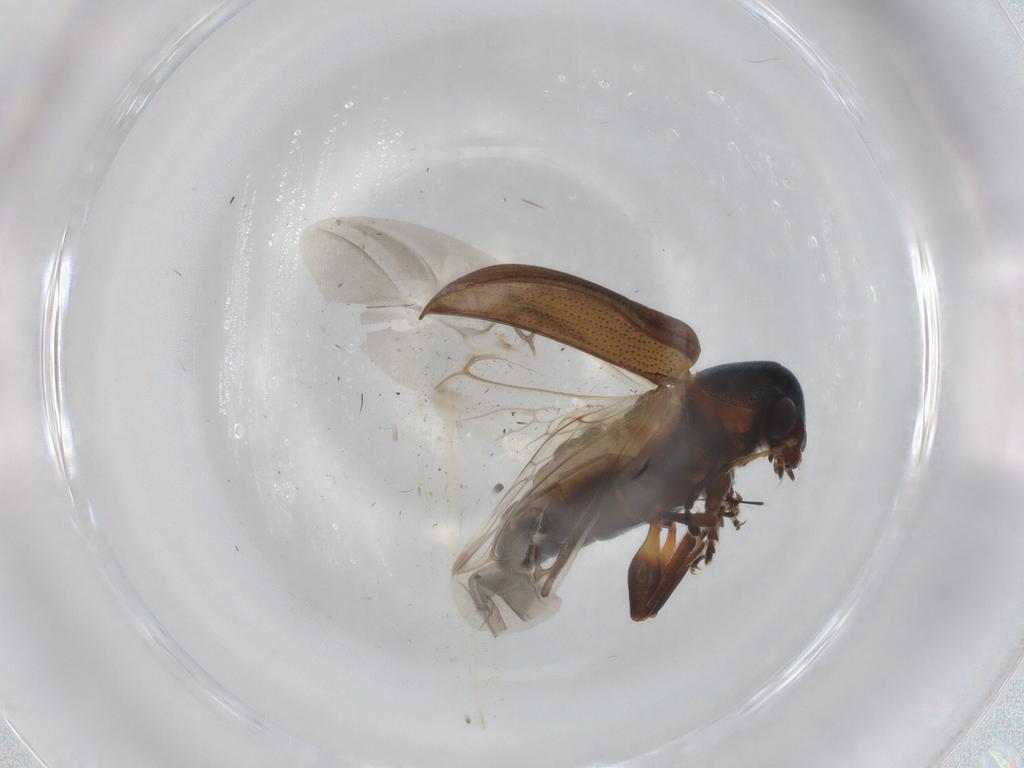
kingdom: Animalia
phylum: Arthropoda
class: Insecta
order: Coleoptera
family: Chrysomelidae
